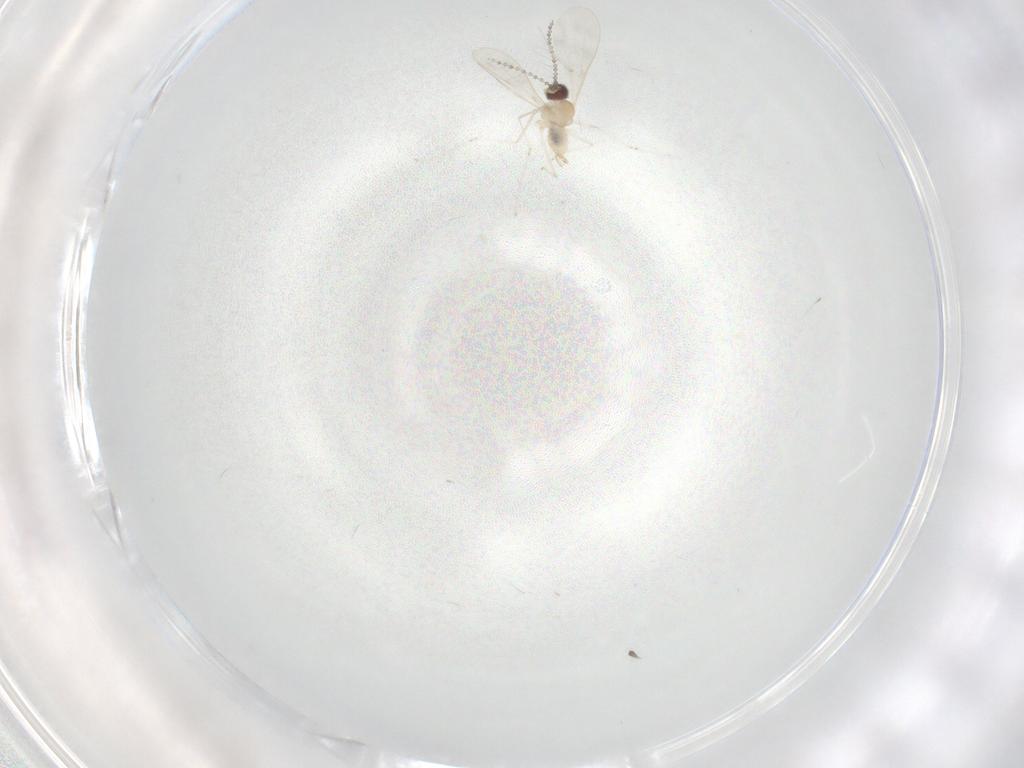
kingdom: Animalia
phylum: Arthropoda
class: Insecta
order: Diptera
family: Cecidomyiidae
